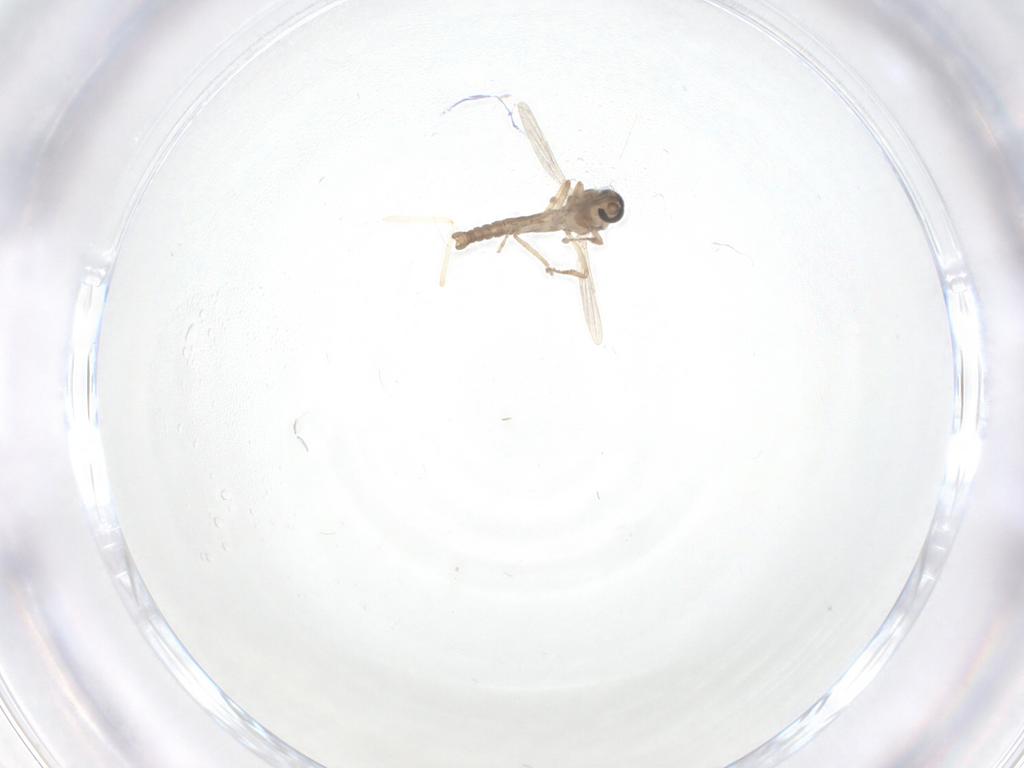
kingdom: Animalia
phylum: Arthropoda
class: Insecta
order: Diptera
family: Ceratopogonidae
